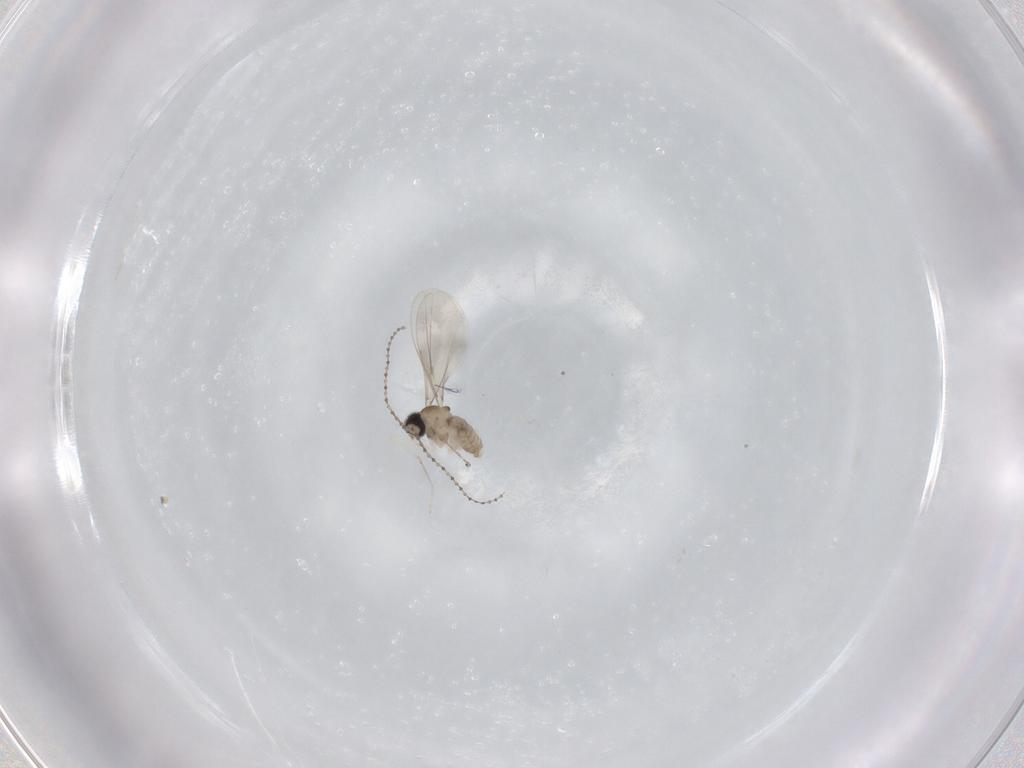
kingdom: Animalia
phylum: Arthropoda
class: Insecta
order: Diptera
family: Cecidomyiidae
